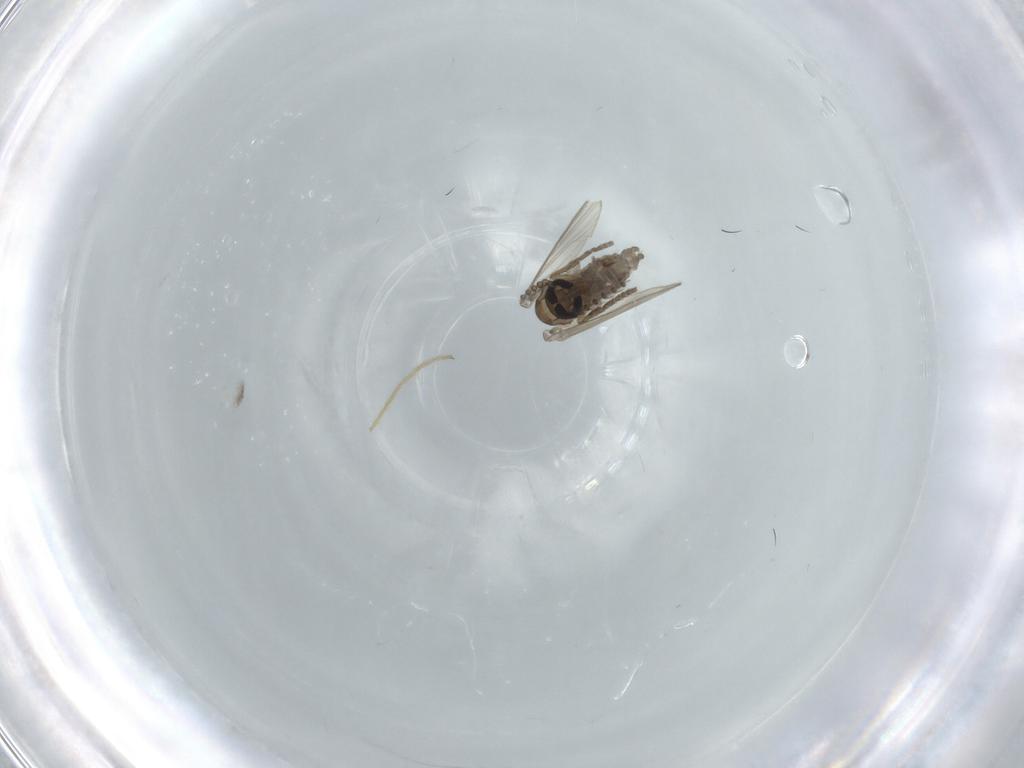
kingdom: Animalia
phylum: Arthropoda
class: Insecta
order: Diptera
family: Psychodidae
